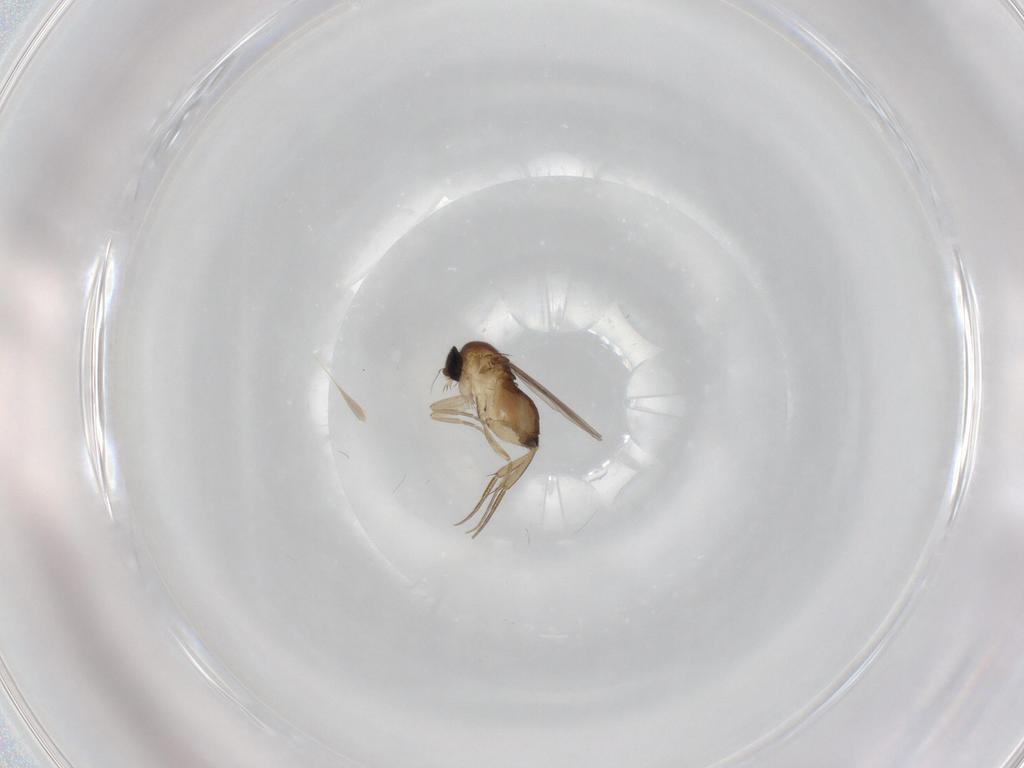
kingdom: Animalia
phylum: Arthropoda
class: Insecta
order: Diptera
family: Phoridae
